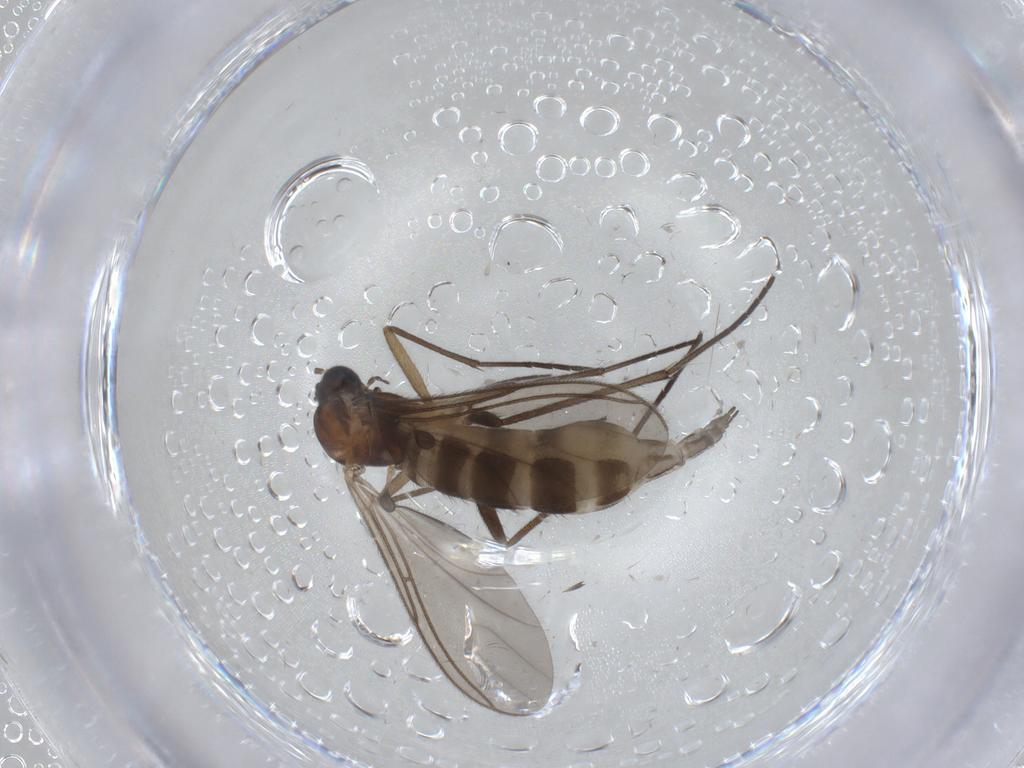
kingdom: Animalia
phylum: Arthropoda
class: Insecta
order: Diptera
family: Sciaridae
